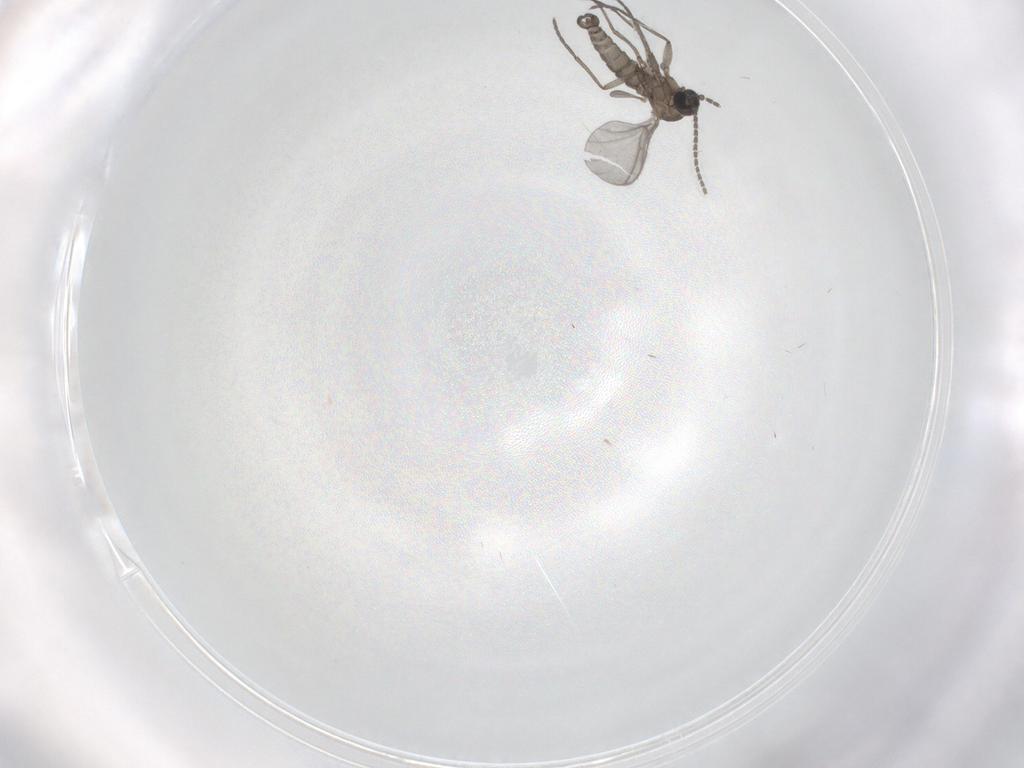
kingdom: Animalia
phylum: Arthropoda
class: Insecta
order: Diptera
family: Sciaridae
